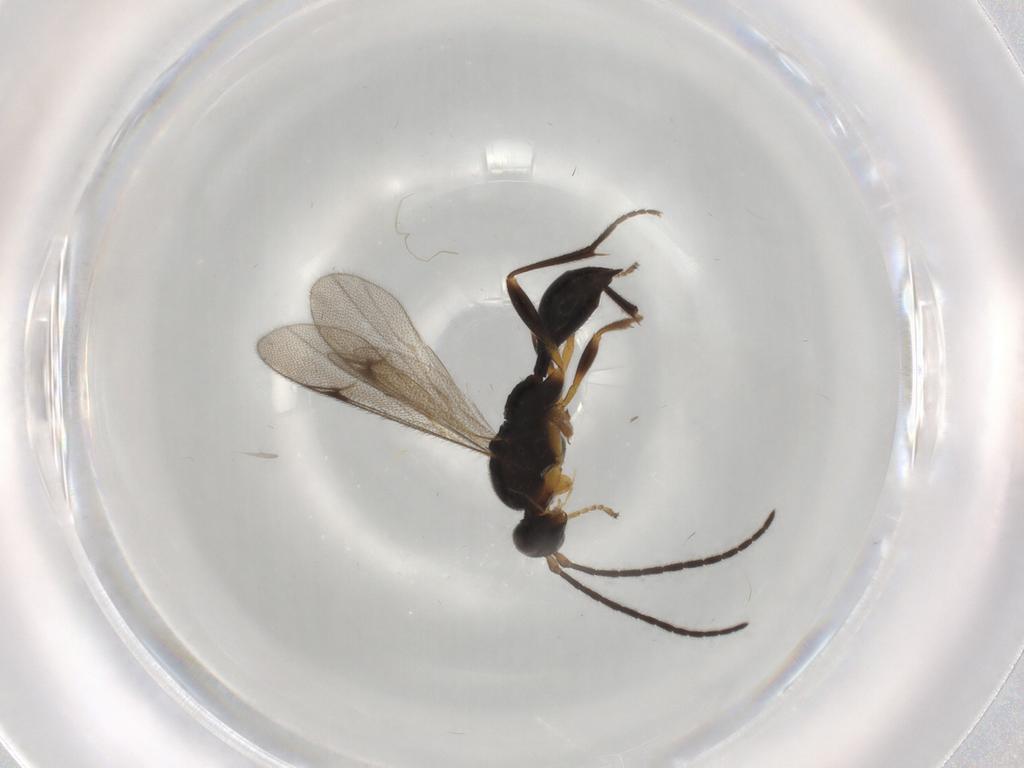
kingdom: Animalia
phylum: Arthropoda
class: Insecta
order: Hymenoptera
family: Proctotrupidae
